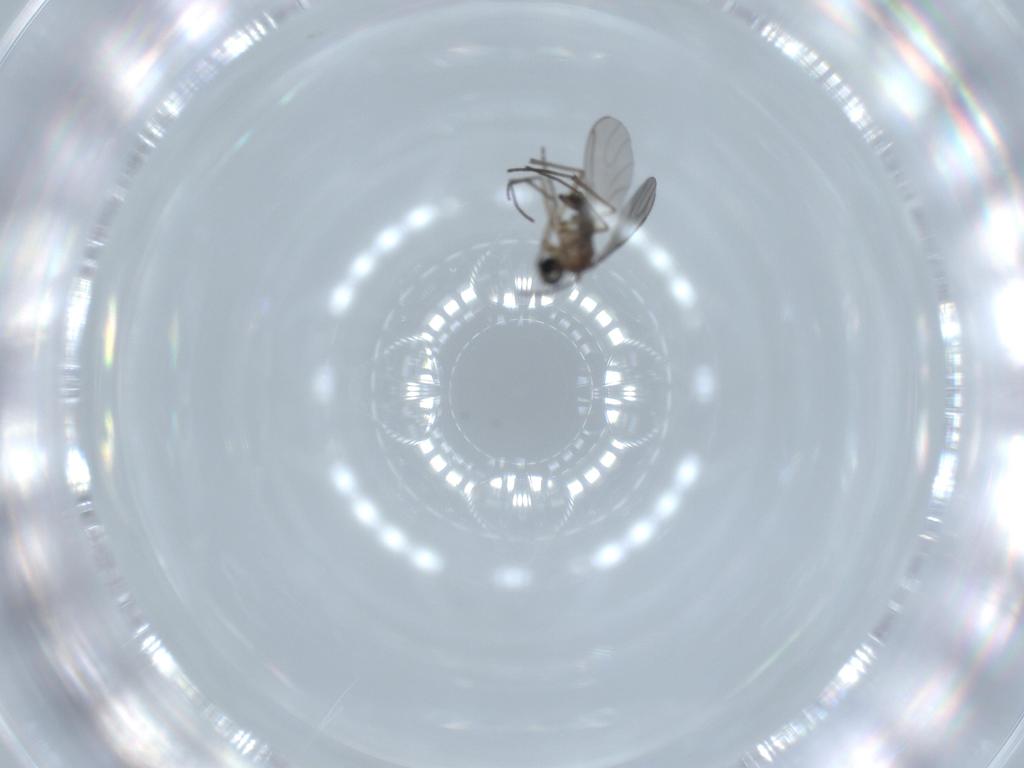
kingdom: Animalia
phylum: Arthropoda
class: Insecta
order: Diptera
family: Sciaridae
